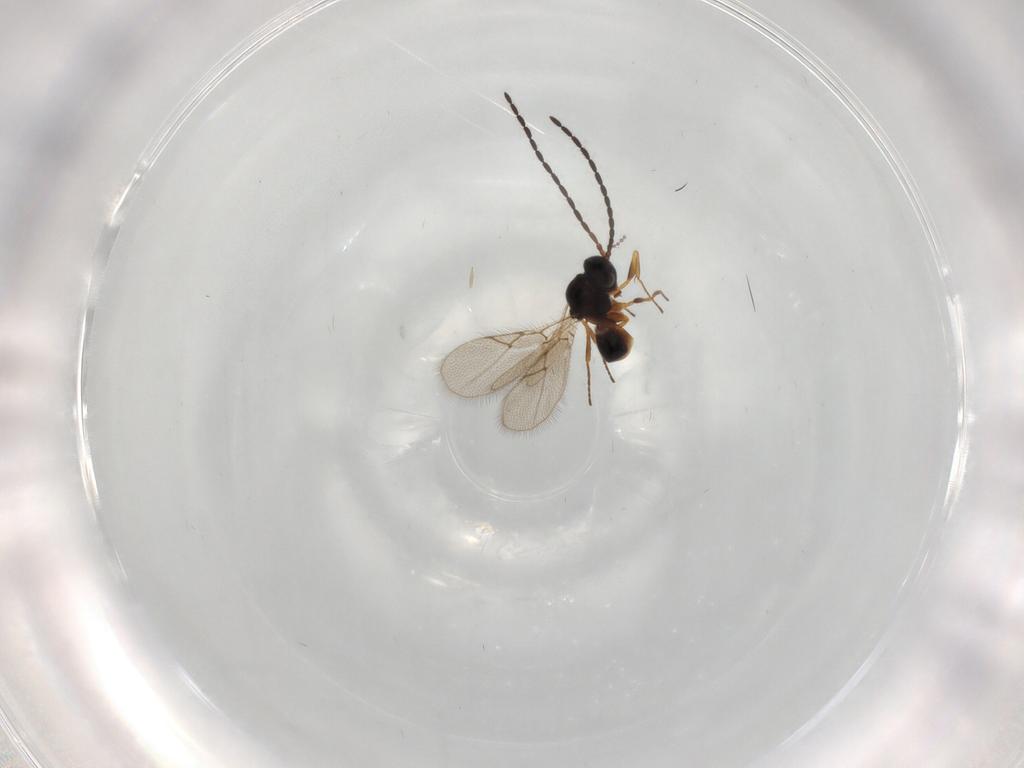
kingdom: Animalia
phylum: Arthropoda
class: Insecta
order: Hymenoptera
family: Figitidae
